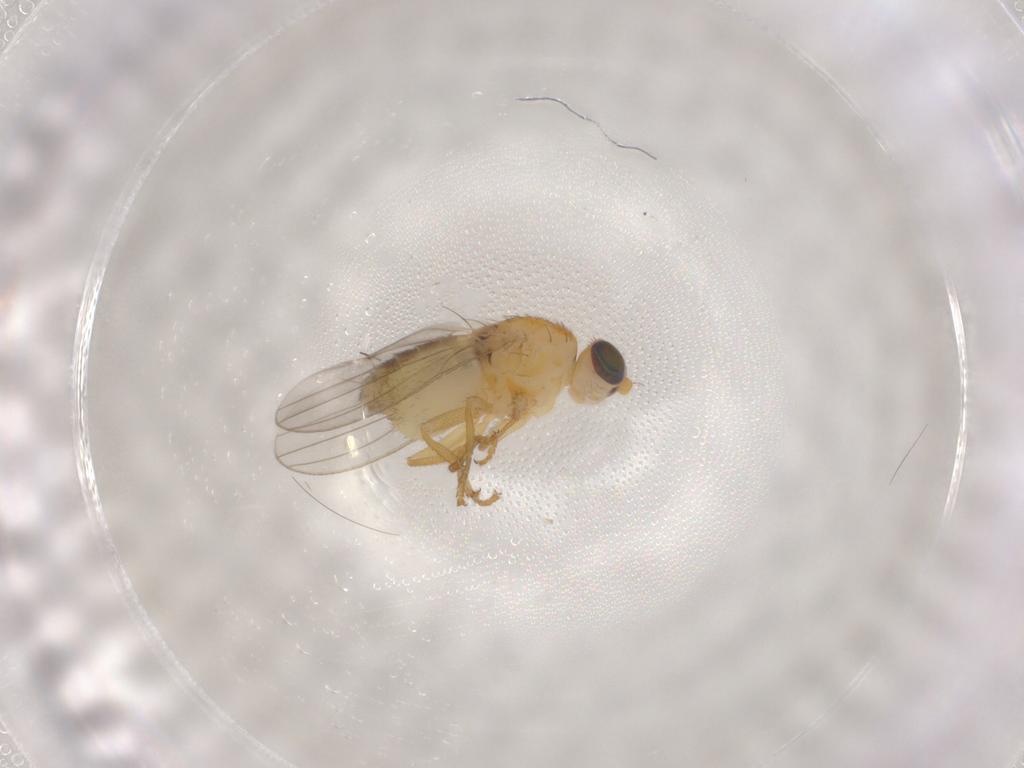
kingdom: Animalia
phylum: Arthropoda
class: Insecta
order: Diptera
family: Chyromyidae
